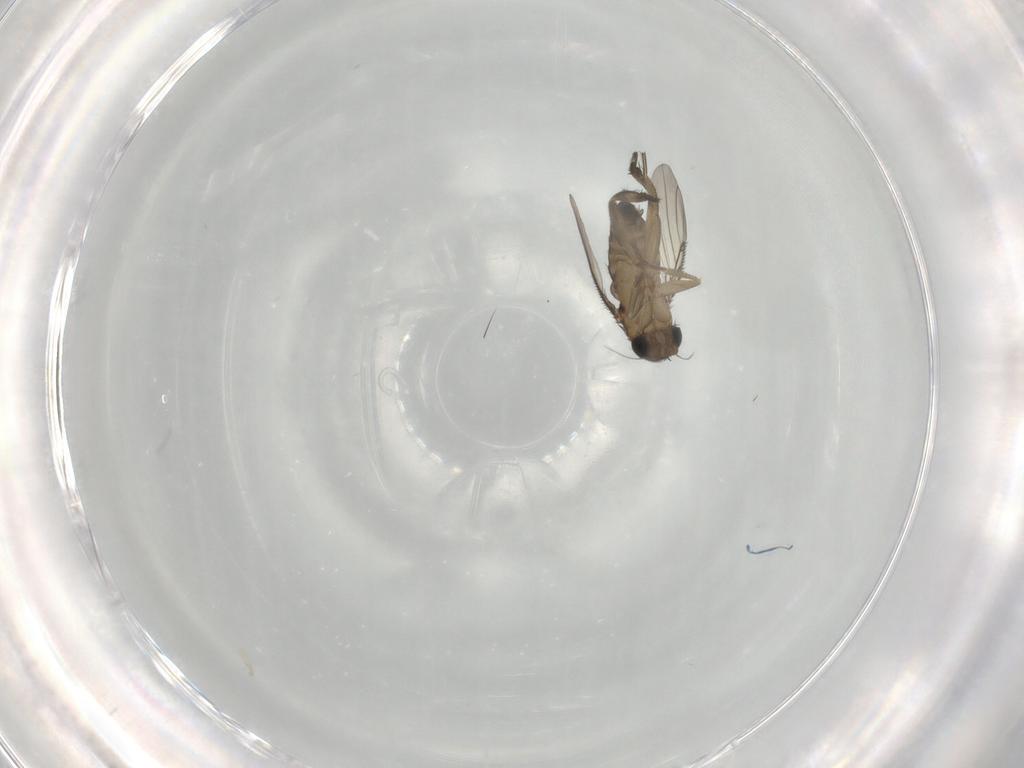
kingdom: Animalia
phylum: Arthropoda
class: Insecta
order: Diptera
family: Phoridae
